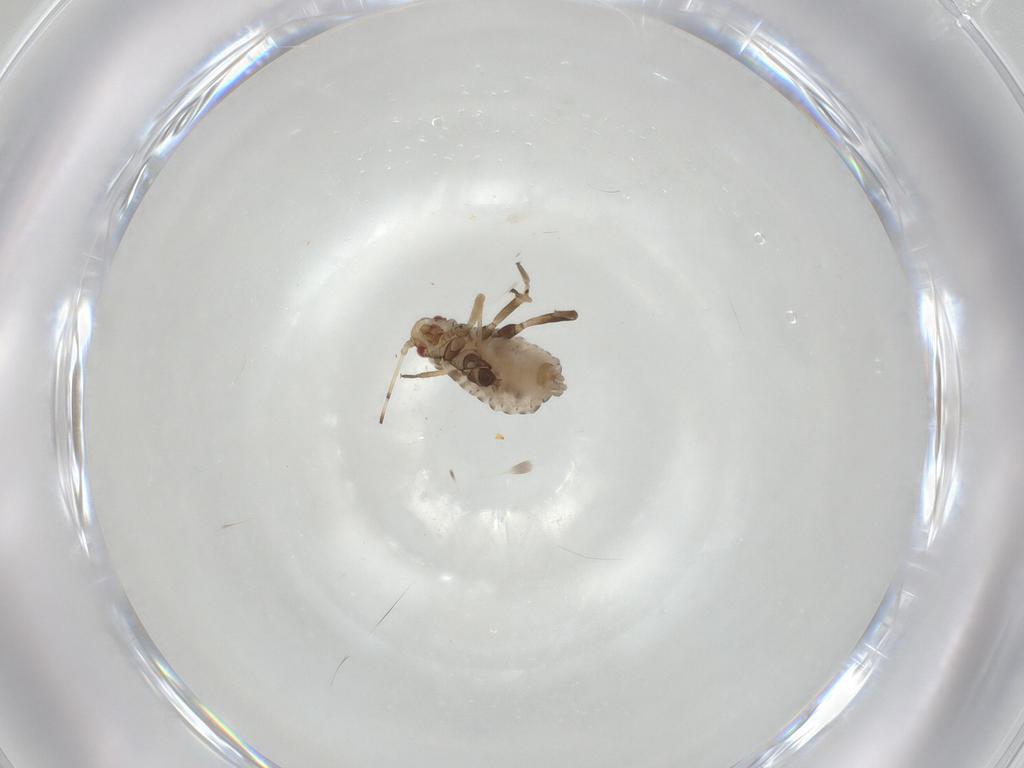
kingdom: Animalia
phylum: Arthropoda
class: Insecta
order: Hemiptera
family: Aphididae
